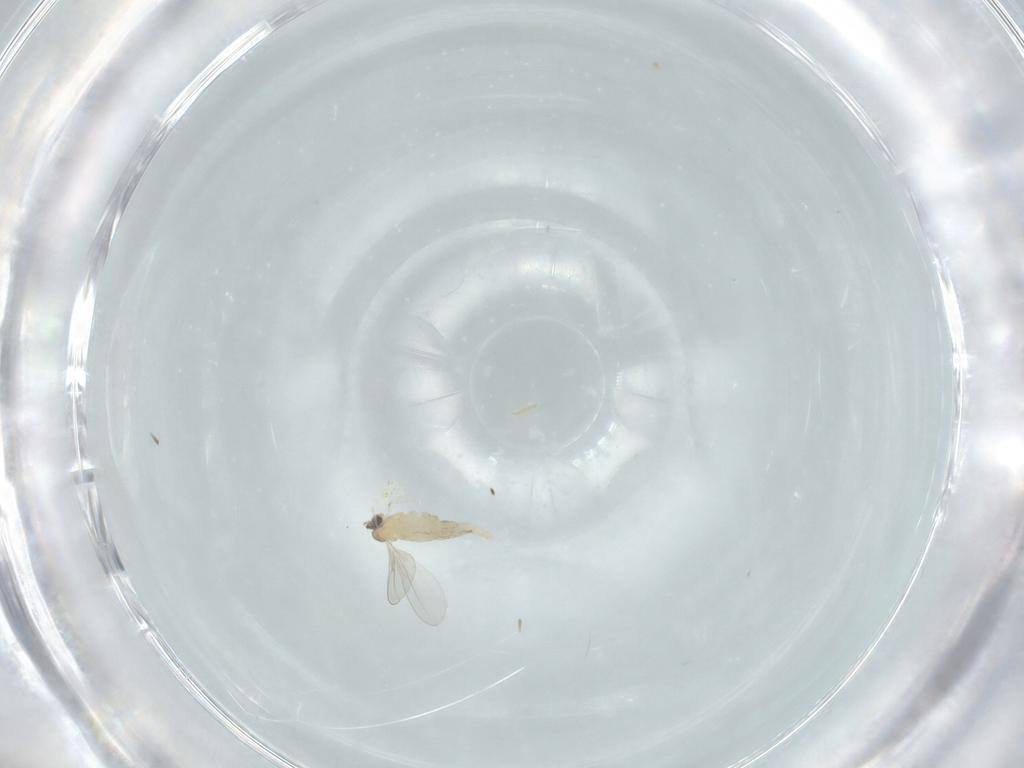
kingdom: Animalia
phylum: Arthropoda
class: Insecta
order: Diptera
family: Cecidomyiidae
